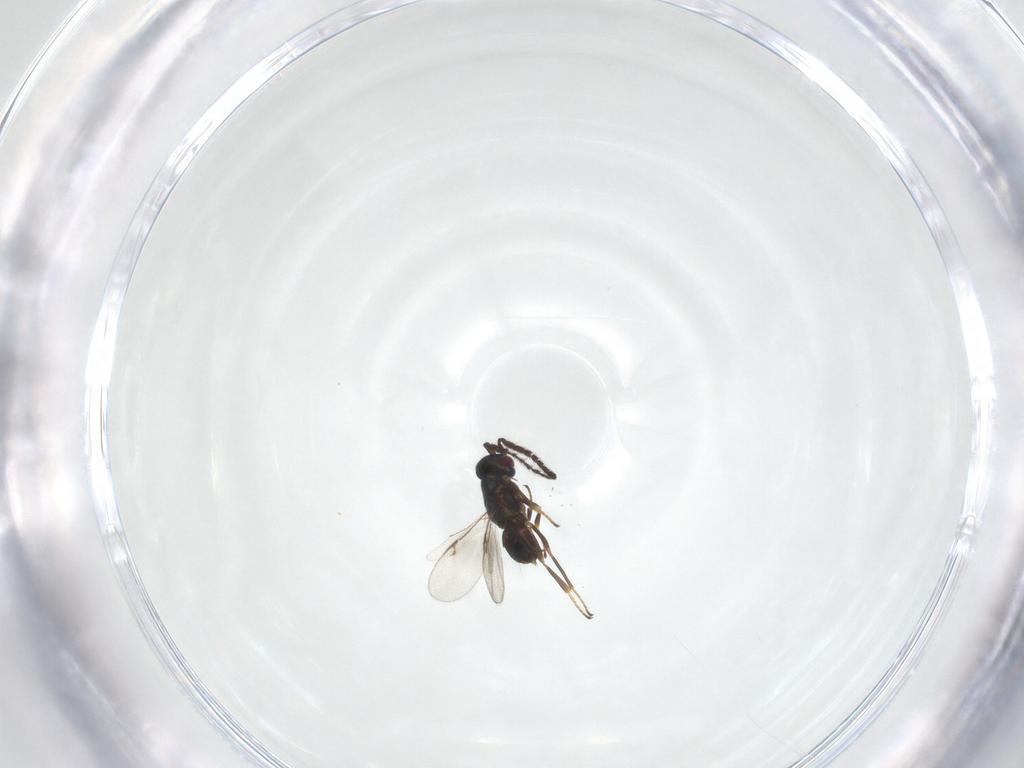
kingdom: Animalia
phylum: Arthropoda
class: Insecta
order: Hymenoptera
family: Encyrtidae
